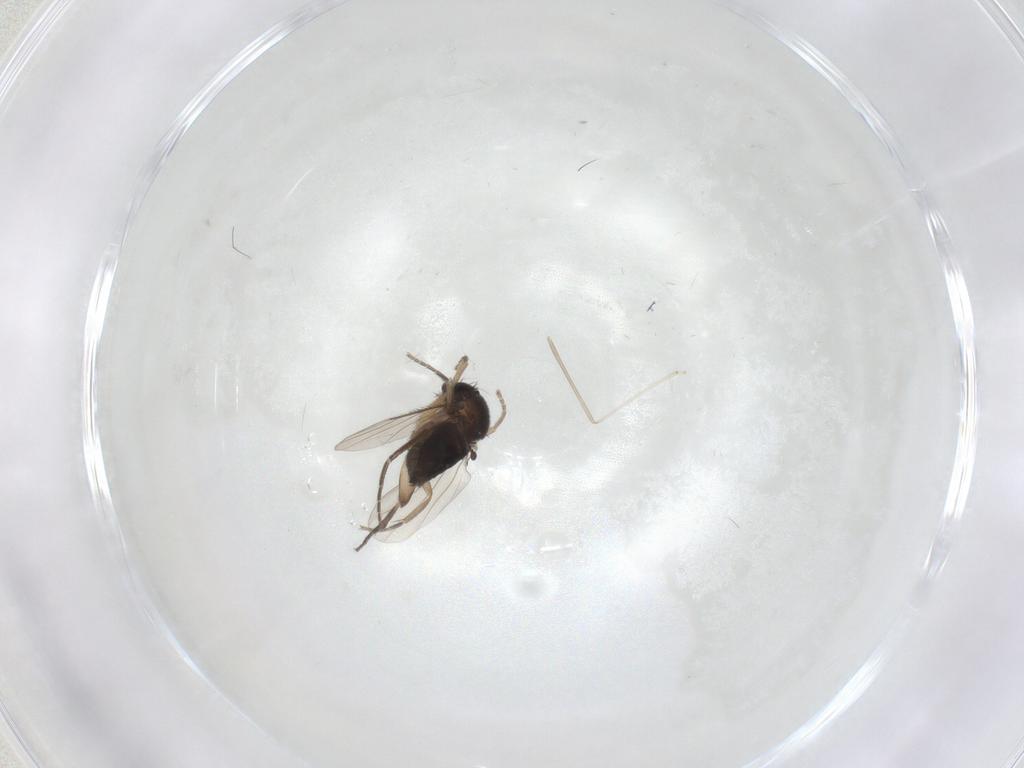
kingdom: Animalia
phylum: Arthropoda
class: Insecta
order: Diptera
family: Phoridae
